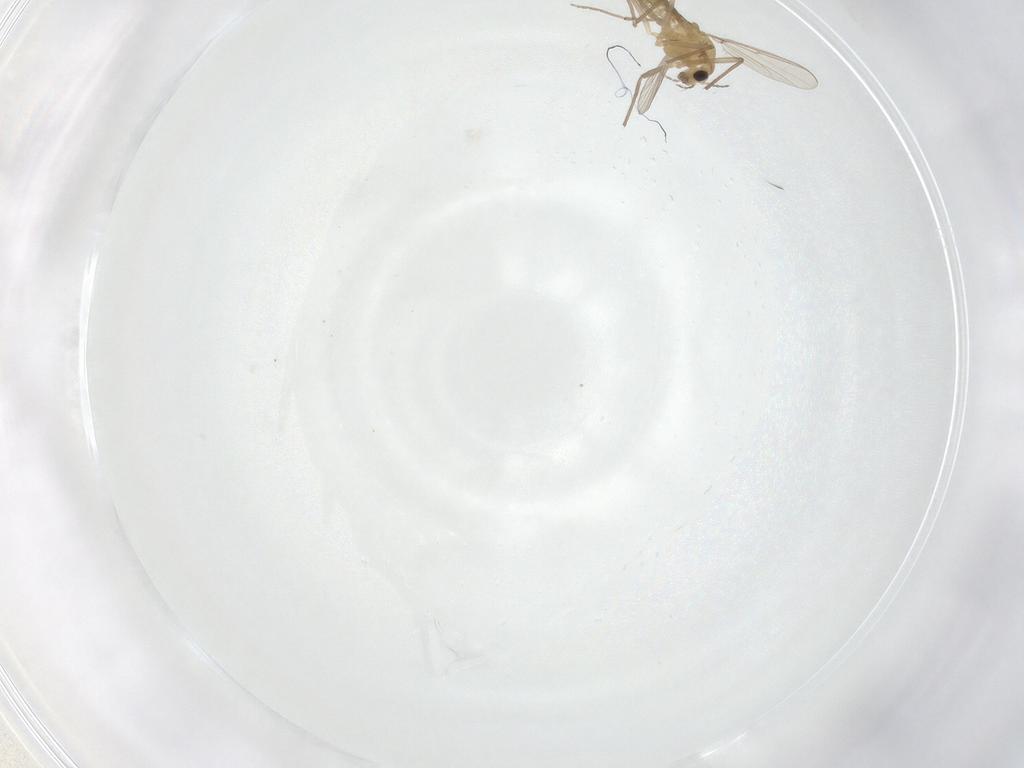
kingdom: Animalia
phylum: Arthropoda
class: Insecta
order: Diptera
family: Chironomidae
